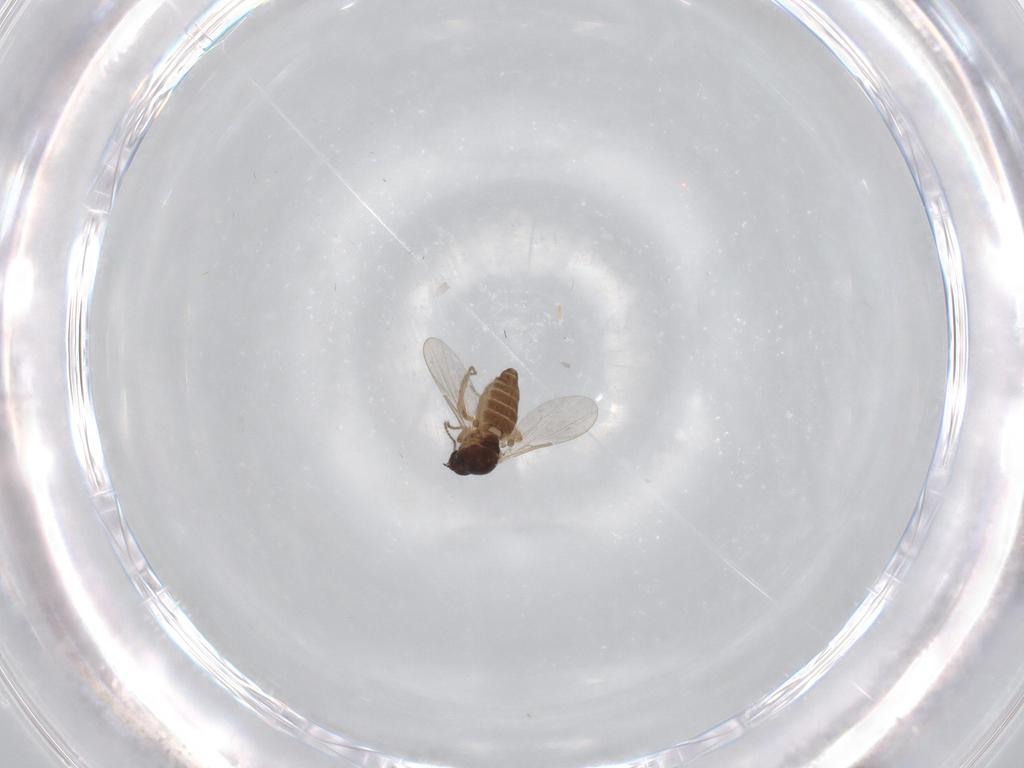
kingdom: Animalia
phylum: Arthropoda
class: Insecta
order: Diptera
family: Ceratopogonidae
